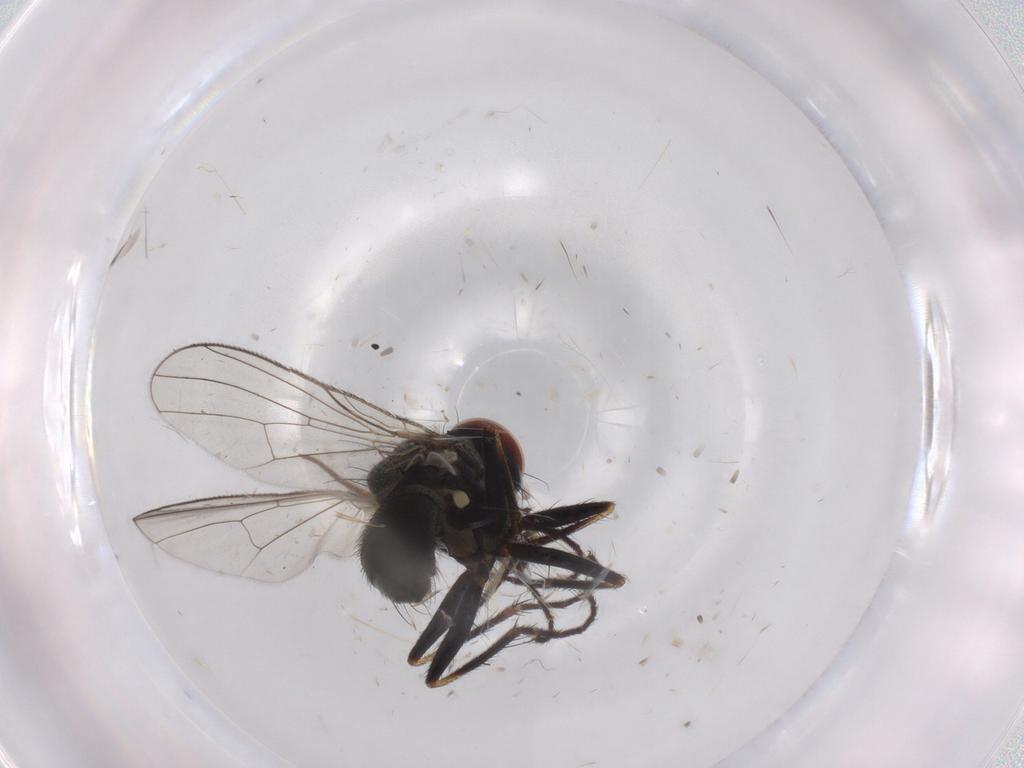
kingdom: Animalia
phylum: Arthropoda
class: Insecta
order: Diptera
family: Muscidae
